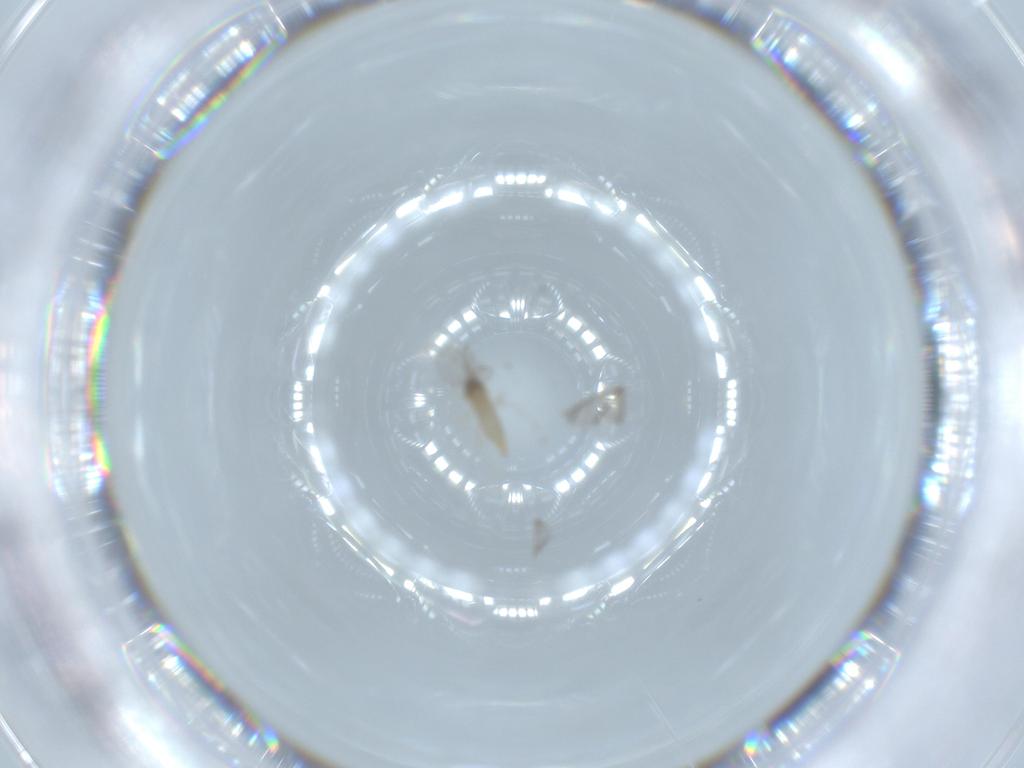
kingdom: Animalia
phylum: Arthropoda
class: Insecta
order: Diptera
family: Cecidomyiidae
